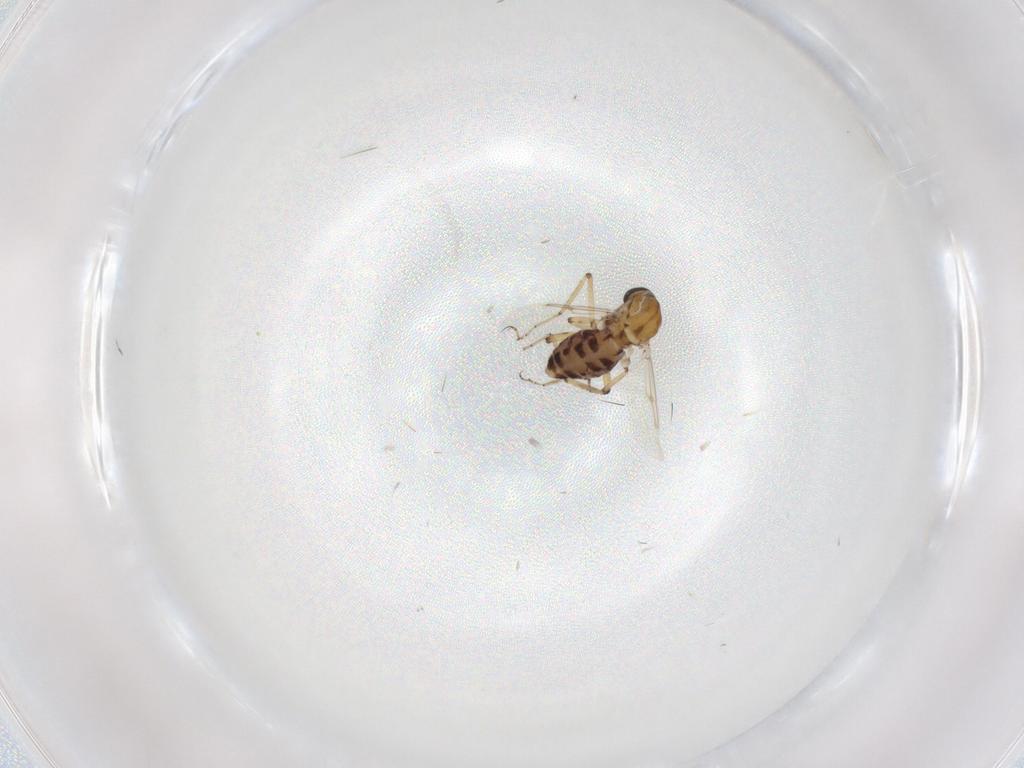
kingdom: Animalia
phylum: Arthropoda
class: Insecta
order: Diptera
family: Ceratopogonidae
